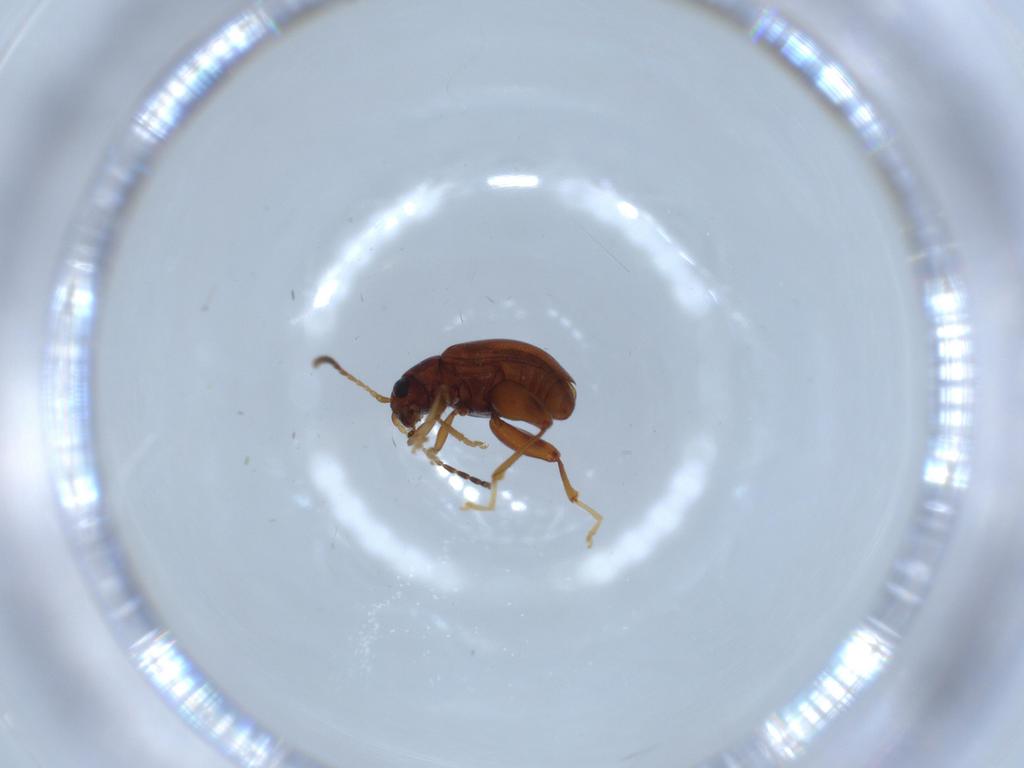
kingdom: Animalia
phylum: Arthropoda
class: Insecta
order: Coleoptera
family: Chrysomelidae
